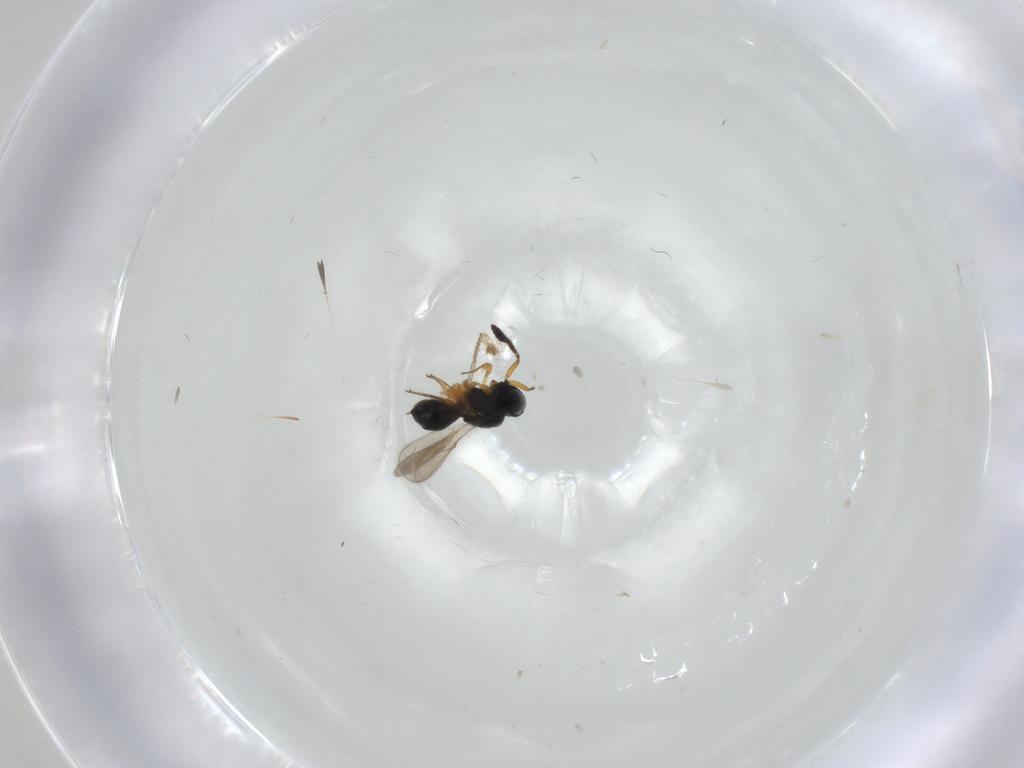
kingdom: Animalia
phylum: Arthropoda
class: Insecta
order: Hymenoptera
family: Scelionidae
